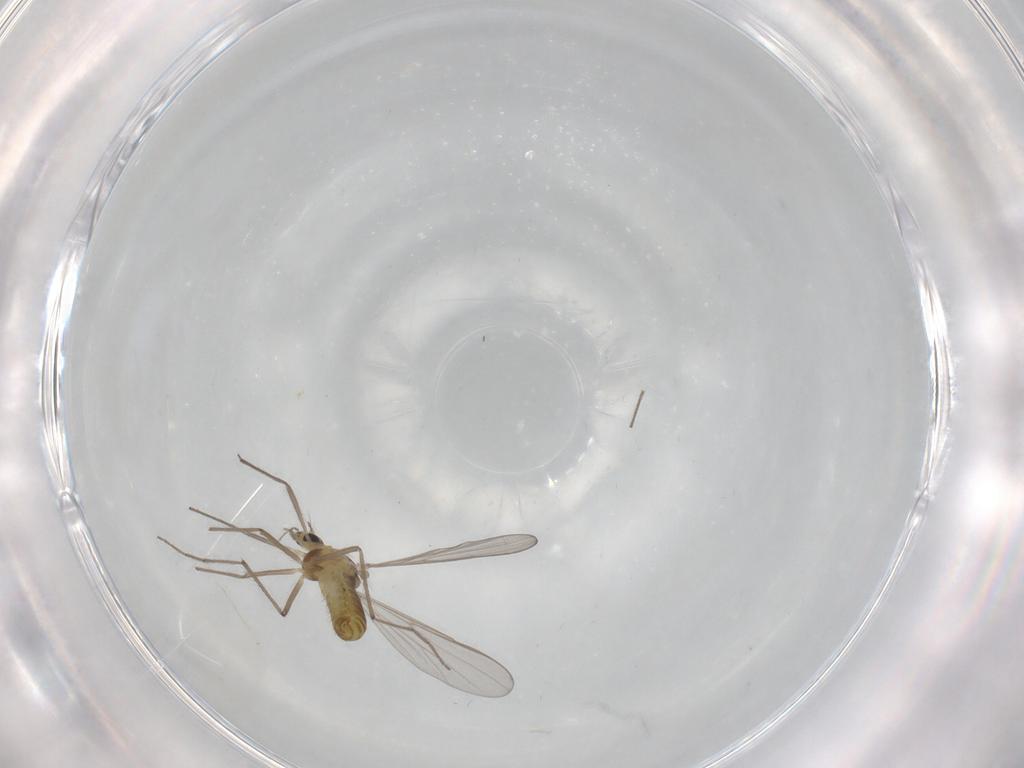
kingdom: Animalia
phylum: Arthropoda
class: Insecta
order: Diptera
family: Chironomidae
